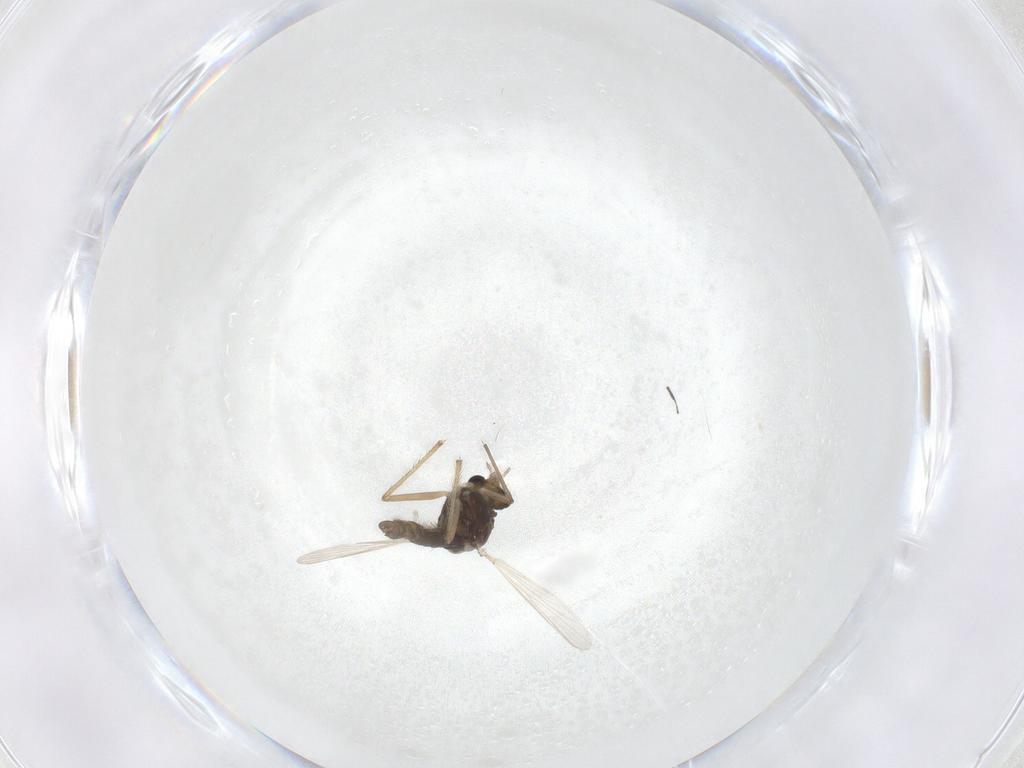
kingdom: Animalia
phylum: Arthropoda
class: Insecta
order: Diptera
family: Chironomidae
